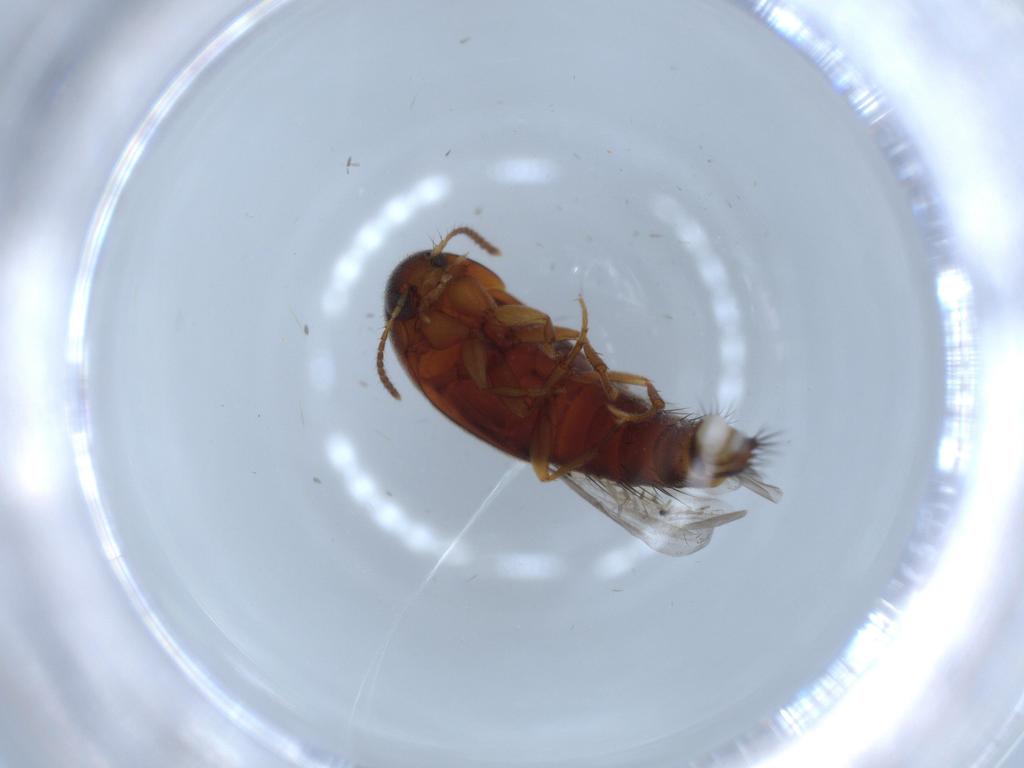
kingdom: Animalia
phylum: Arthropoda
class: Insecta
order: Coleoptera
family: Staphylinidae
